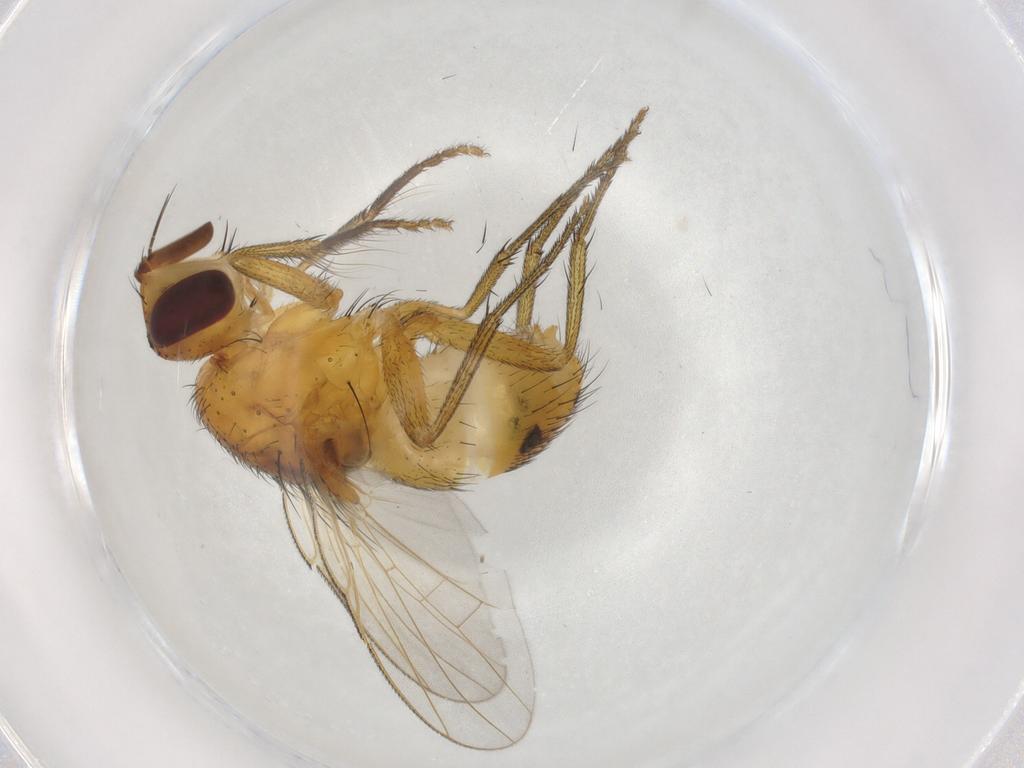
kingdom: Animalia
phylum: Arthropoda
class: Insecta
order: Diptera
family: Muscidae
